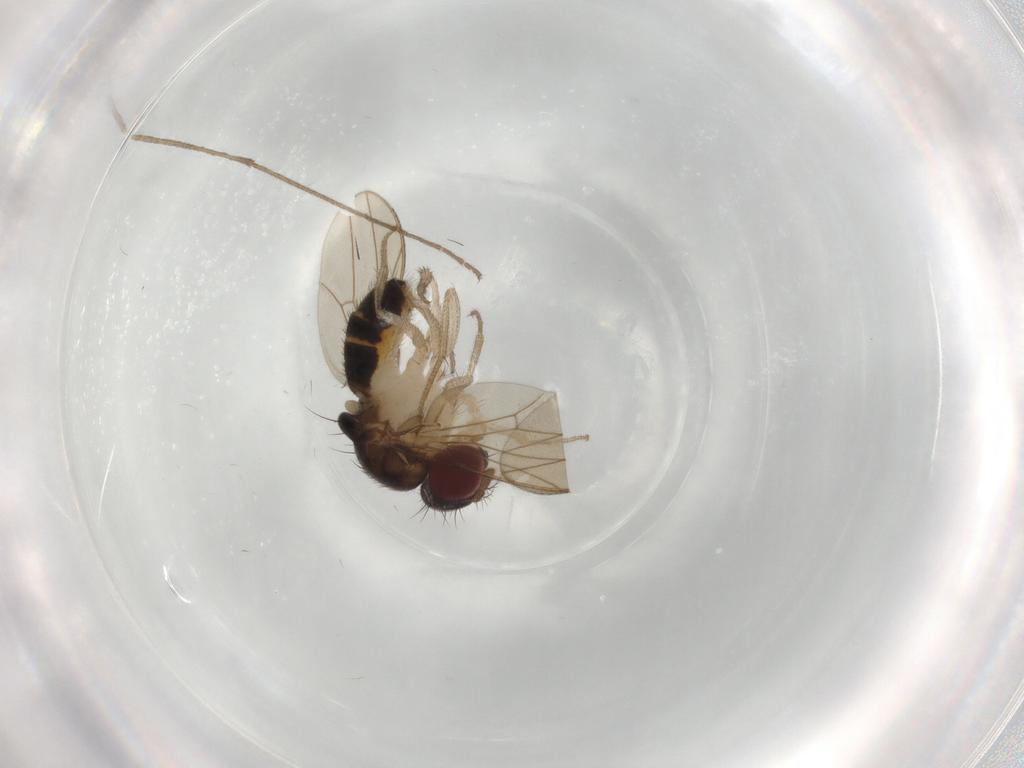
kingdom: Animalia
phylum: Arthropoda
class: Insecta
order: Diptera
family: Drosophilidae
